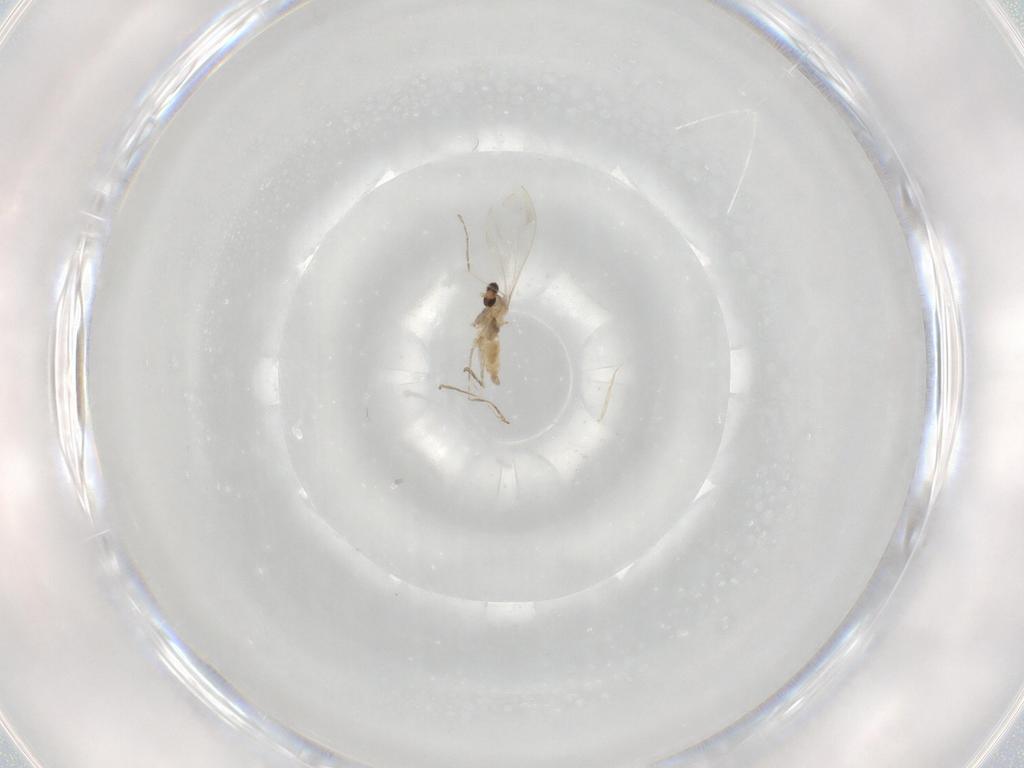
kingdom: Animalia
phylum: Arthropoda
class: Insecta
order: Diptera
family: Cecidomyiidae
